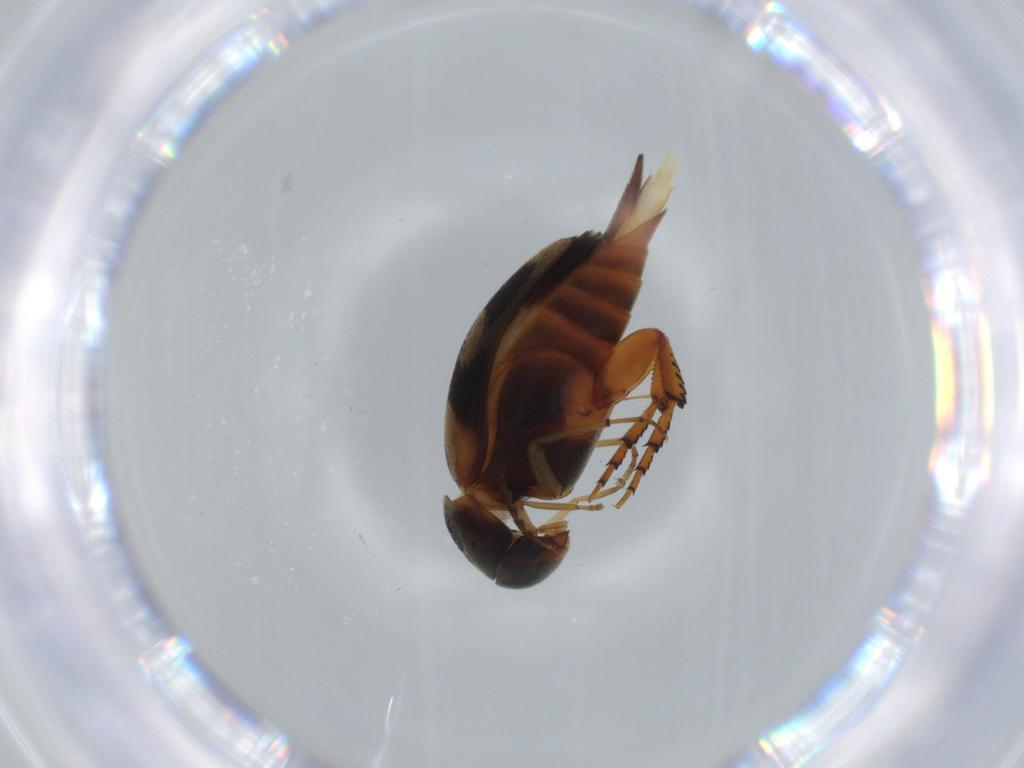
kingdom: Animalia
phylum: Arthropoda
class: Insecta
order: Coleoptera
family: Mordellidae
